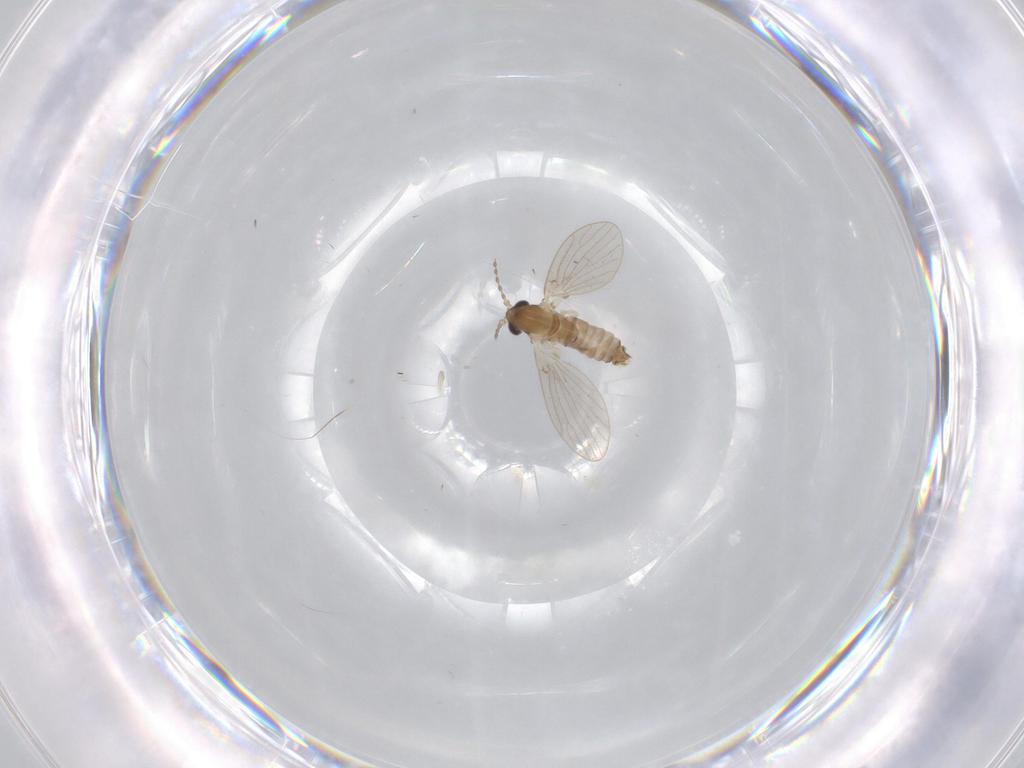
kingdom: Animalia
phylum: Arthropoda
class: Insecta
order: Diptera
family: Psychodidae
